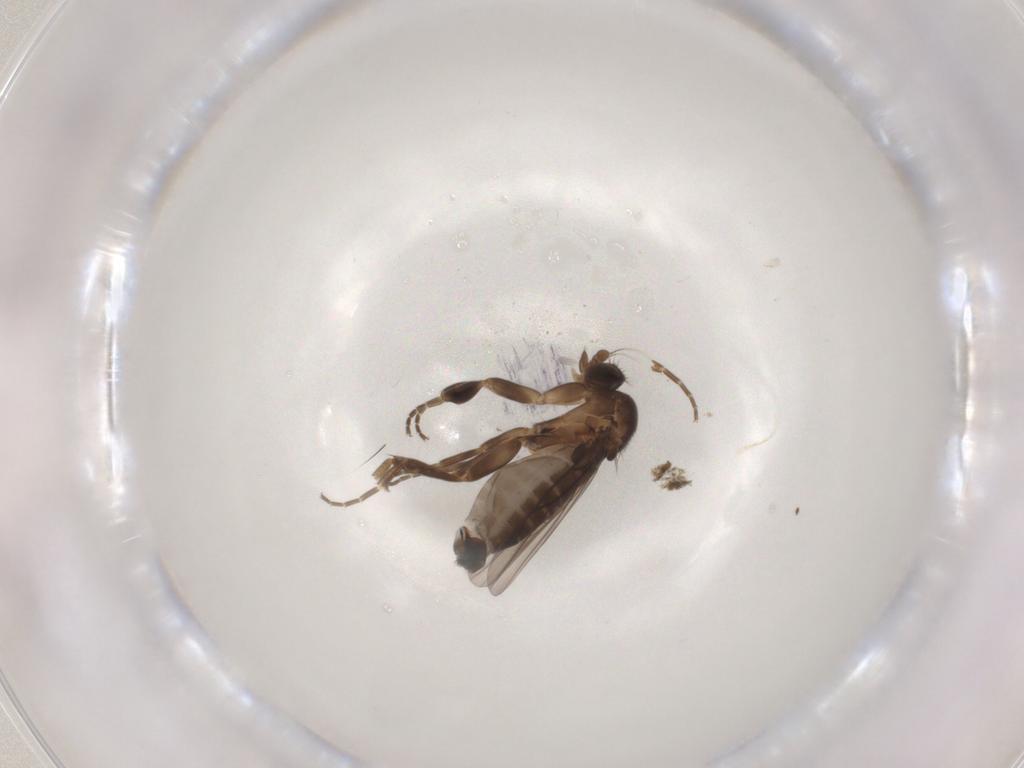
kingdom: Animalia
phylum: Arthropoda
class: Insecta
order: Diptera
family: Phoridae
